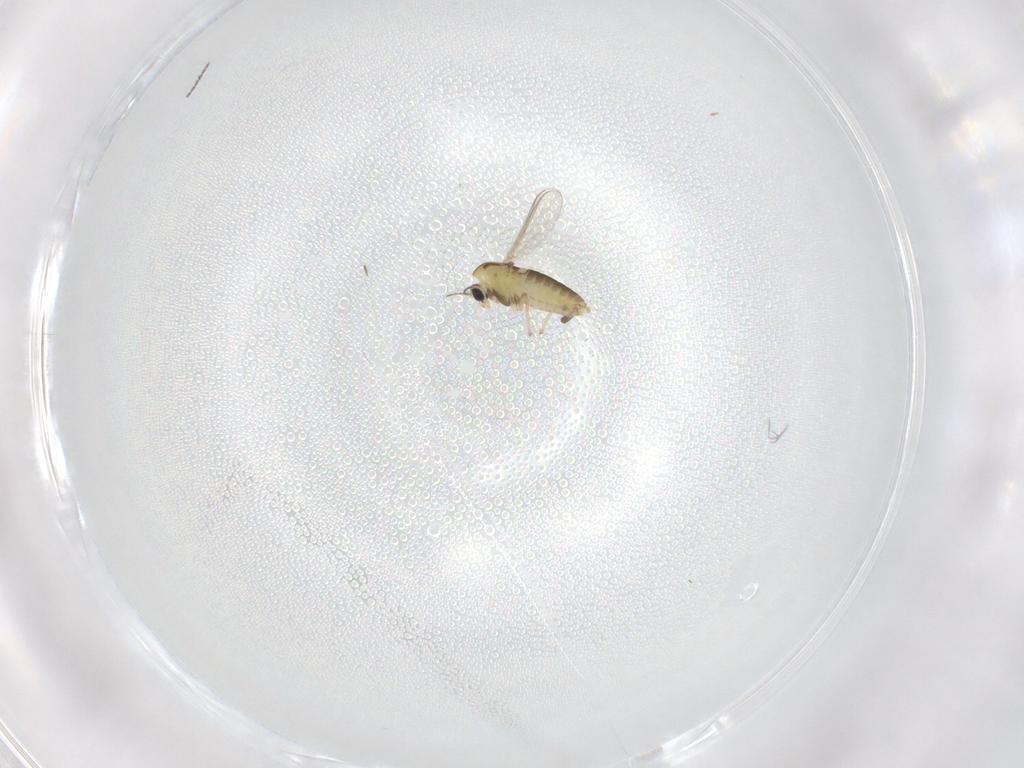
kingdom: Animalia
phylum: Arthropoda
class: Insecta
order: Diptera
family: Chironomidae
